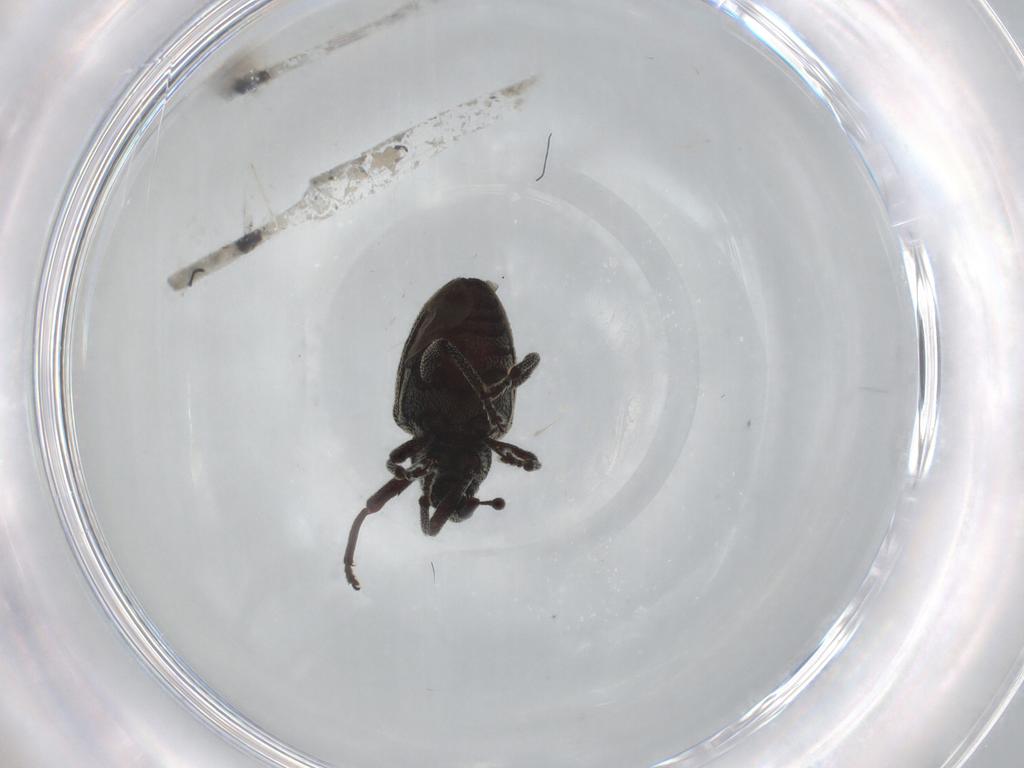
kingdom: Animalia
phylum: Arthropoda
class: Insecta
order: Coleoptera
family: Curculionidae
